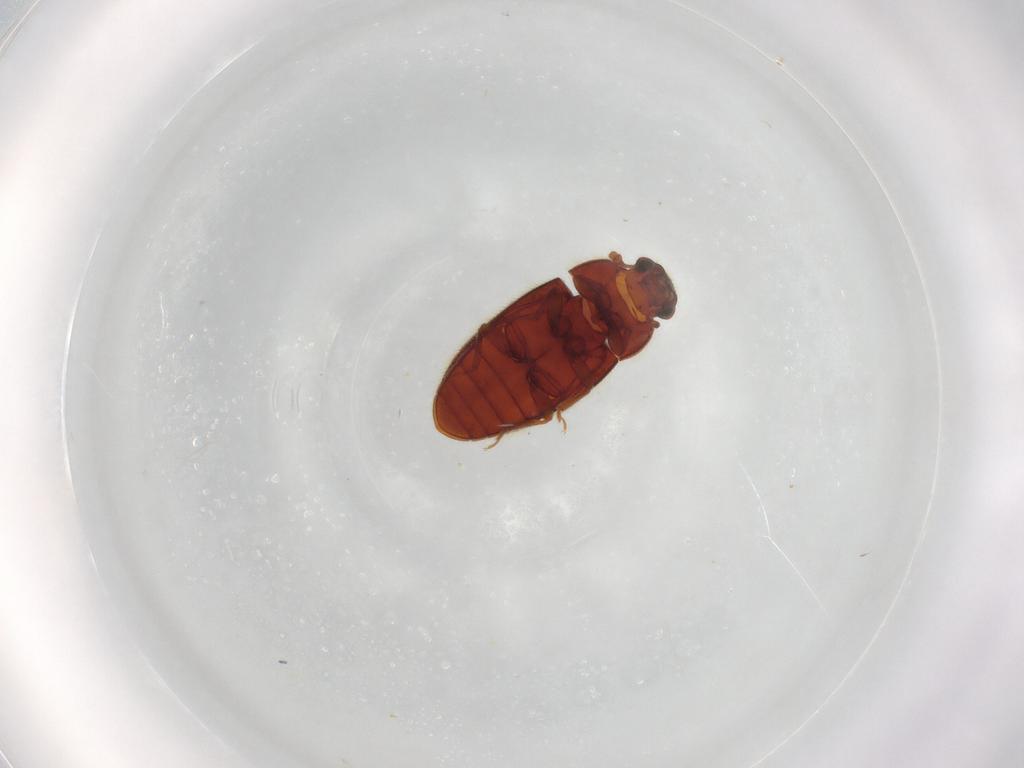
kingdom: Animalia
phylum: Arthropoda
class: Insecta
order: Coleoptera
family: Biphyllidae
